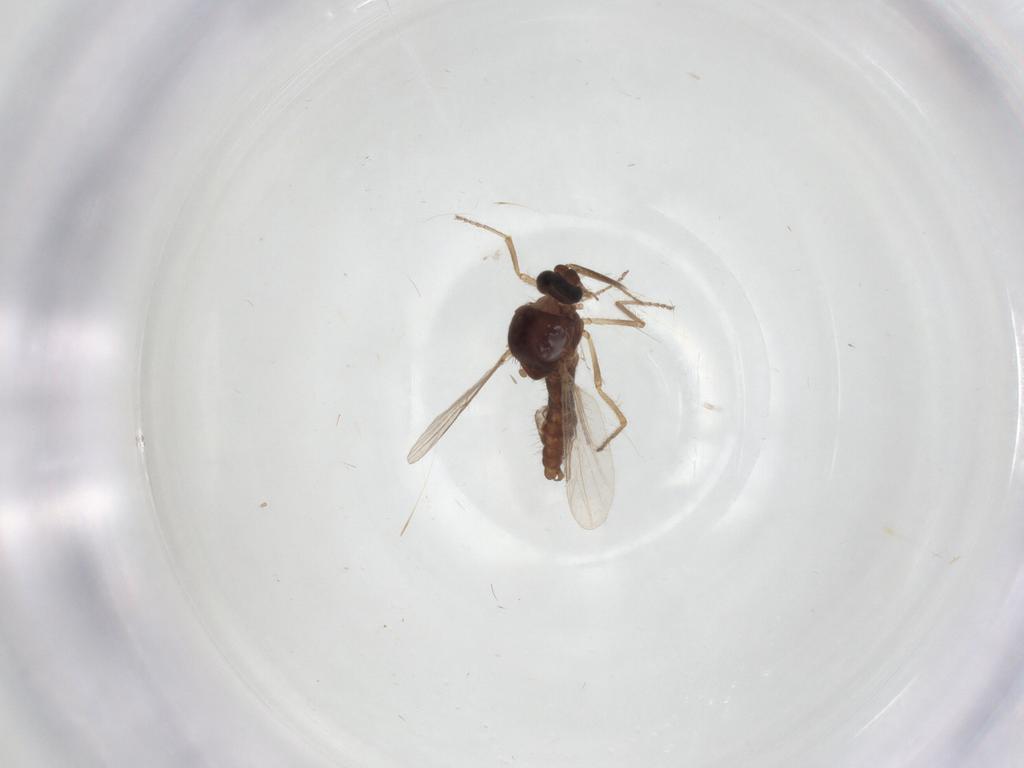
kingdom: Animalia
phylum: Arthropoda
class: Insecta
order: Diptera
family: Ceratopogonidae
